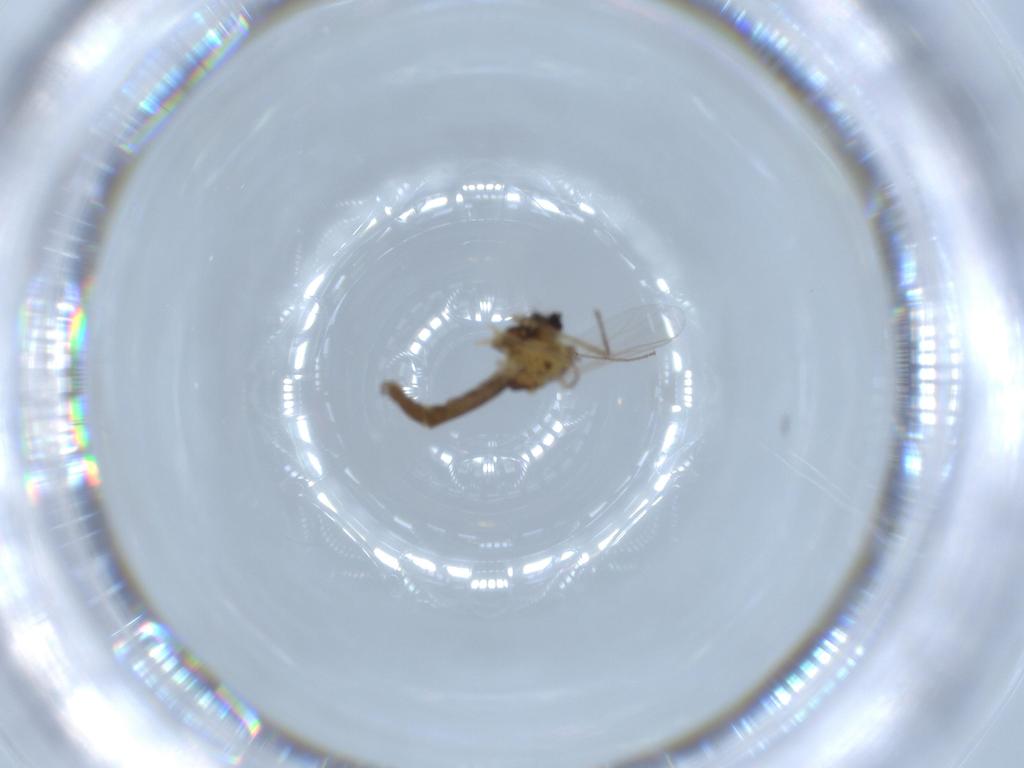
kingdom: Animalia
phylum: Arthropoda
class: Insecta
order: Diptera
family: Chironomidae
